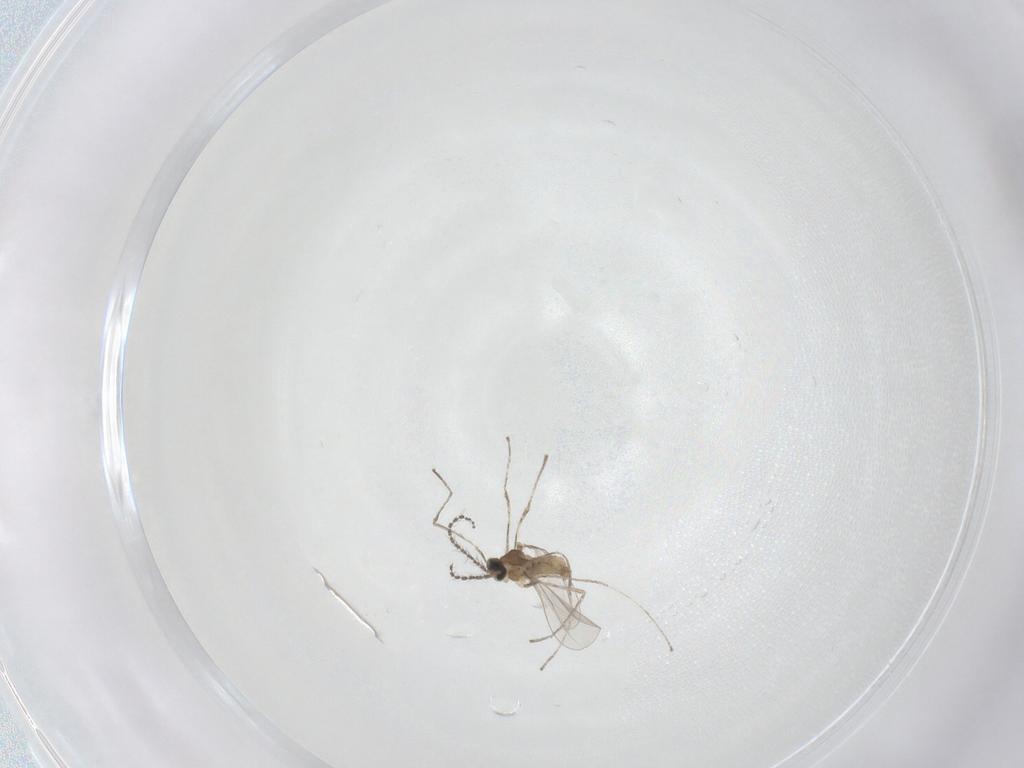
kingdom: Animalia
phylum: Arthropoda
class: Insecta
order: Diptera
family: Cecidomyiidae
